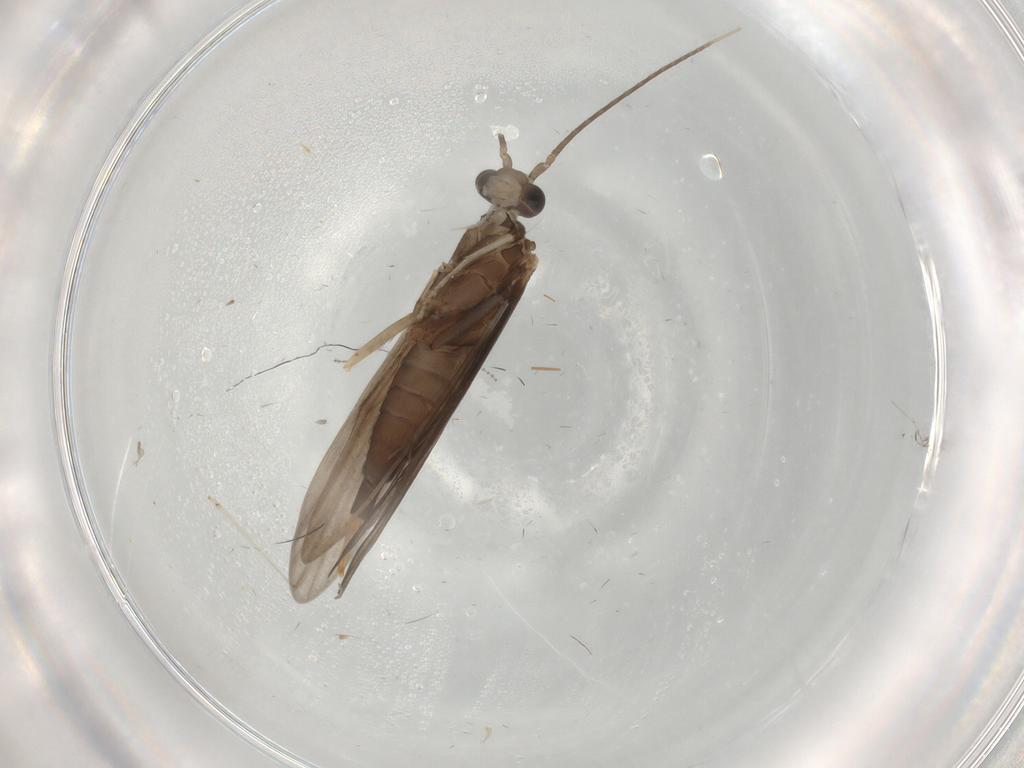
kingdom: Animalia
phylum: Arthropoda
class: Insecta
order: Trichoptera
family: Xiphocentronidae
